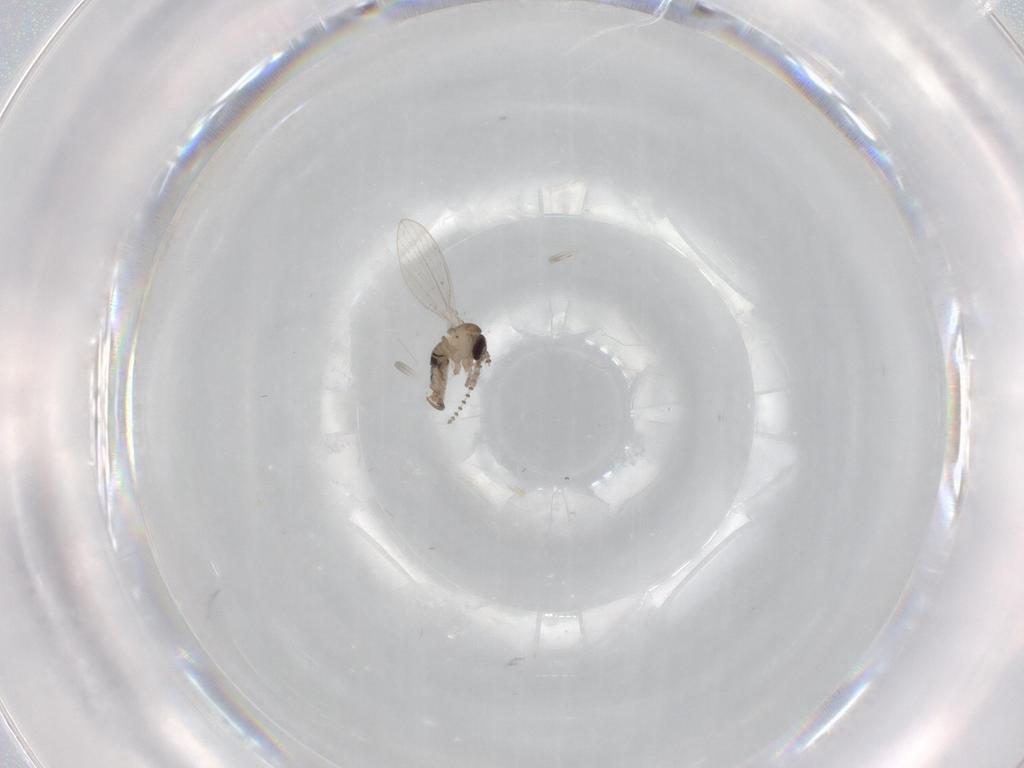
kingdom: Animalia
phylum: Arthropoda
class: Insecta
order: Diptera
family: Psychodidae
